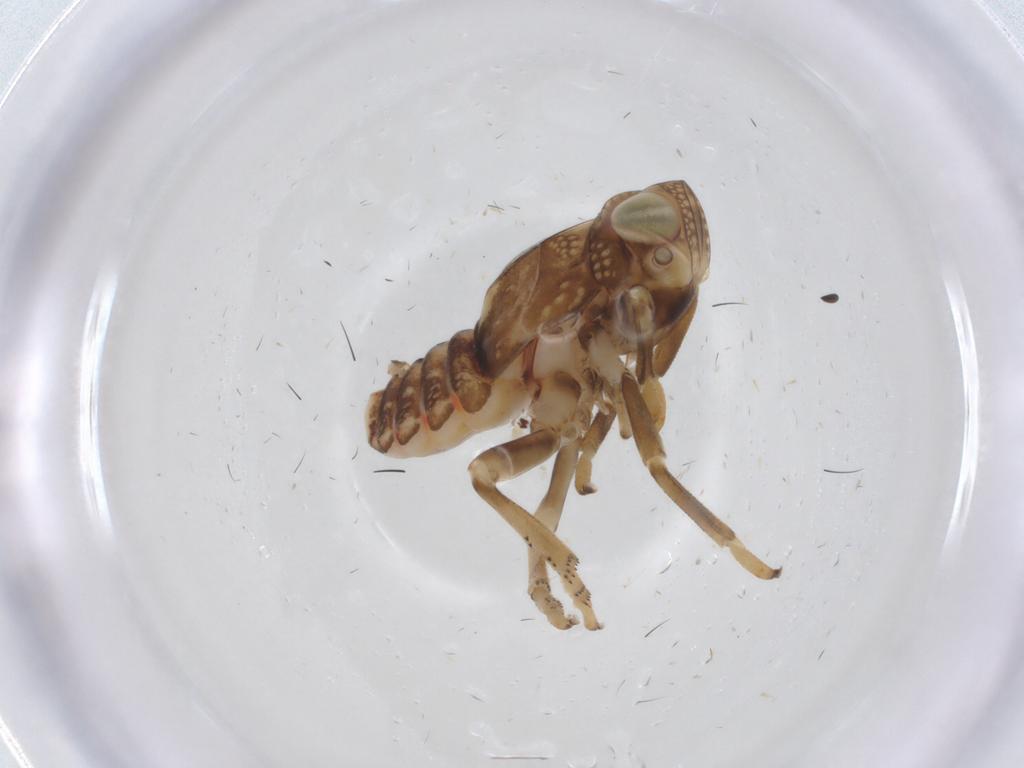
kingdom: Animalia
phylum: Arthropoda
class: Insecta
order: Hemiptera
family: Issidae
